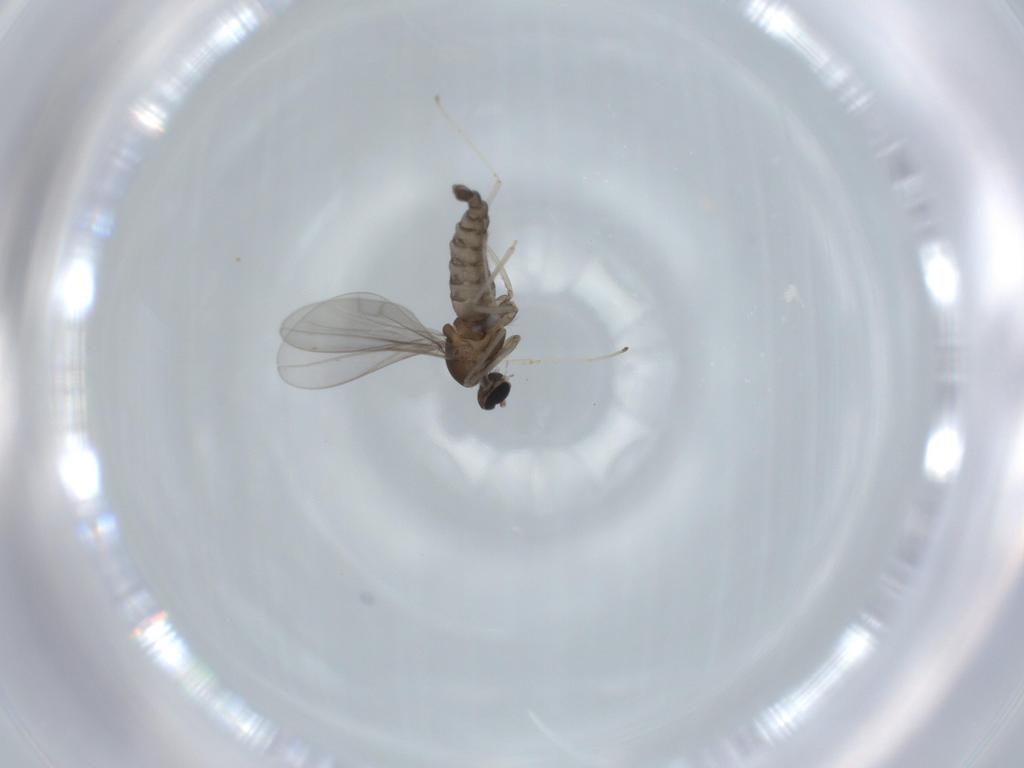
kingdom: Animalia
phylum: Arthropoda
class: Insecta
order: Diptera
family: Cecidomyiidae
